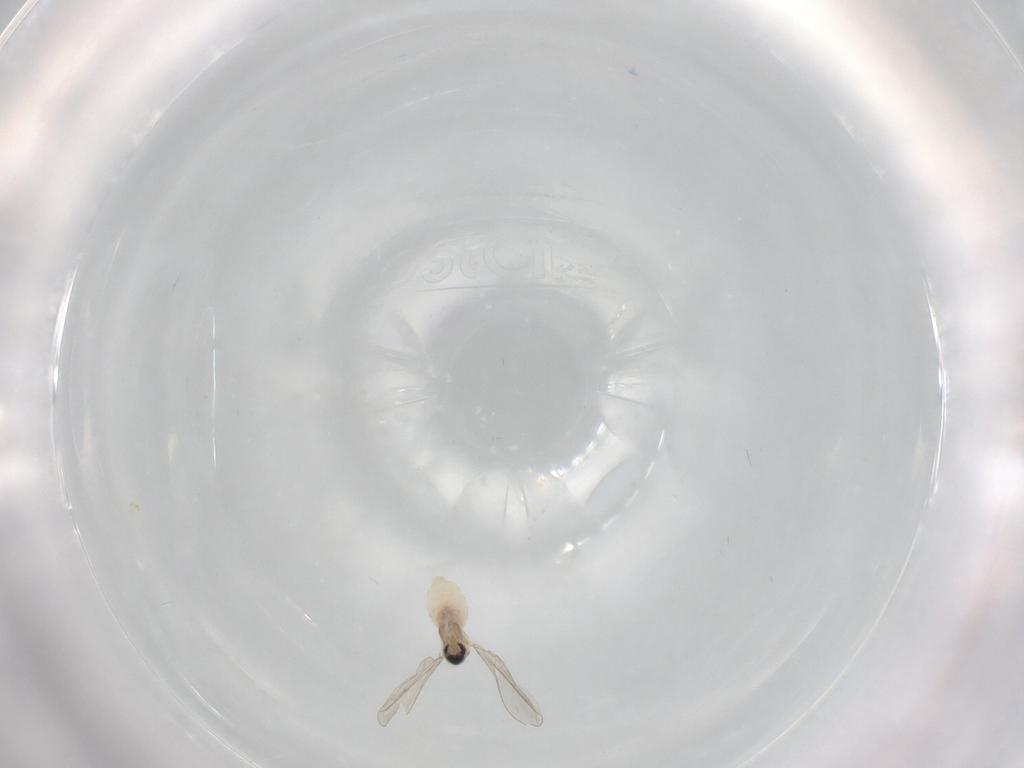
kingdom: Animalia
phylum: Arthropoda
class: Insecta
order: Diptera
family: Cecidomyiidae
